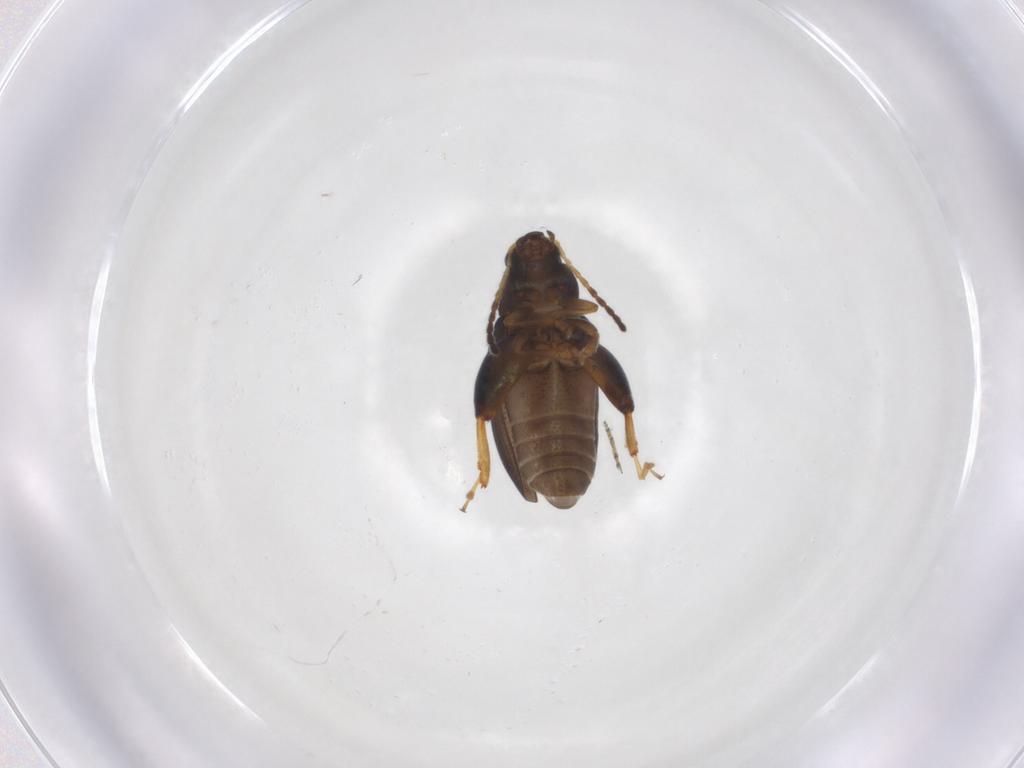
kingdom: Animalia
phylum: Arthropoda
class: Insecta
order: Coleoptera
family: Chrysomelidae
